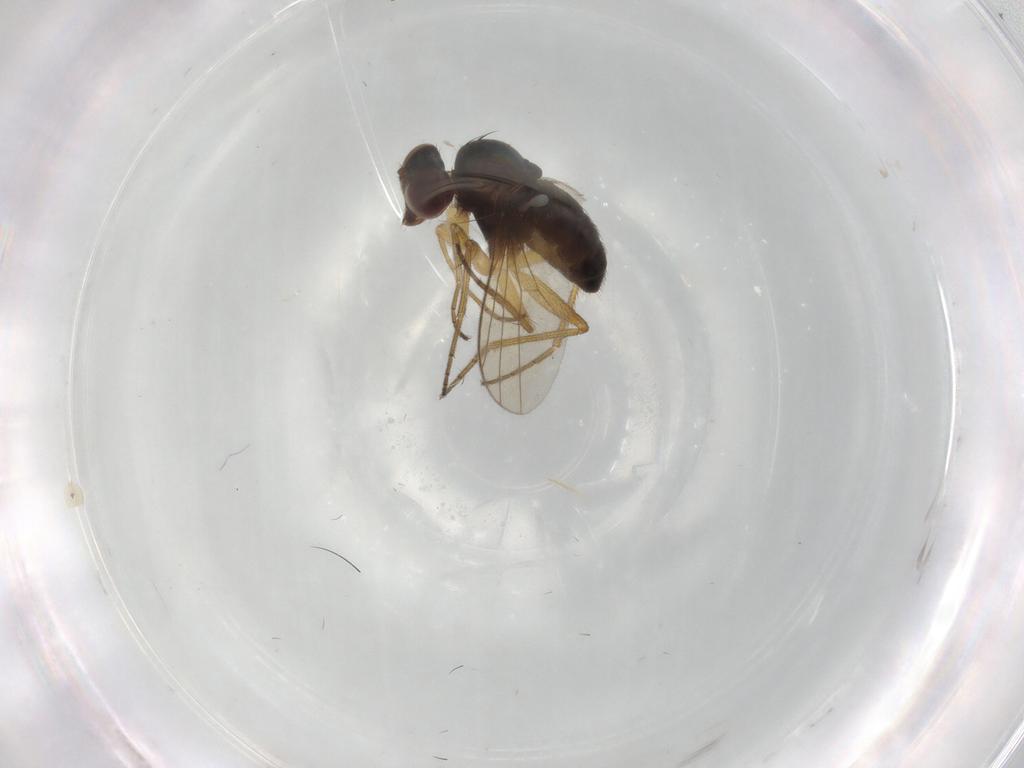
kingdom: Animalia
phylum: Arthropoda
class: Insecta
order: Diptera
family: Dolichopodidae
